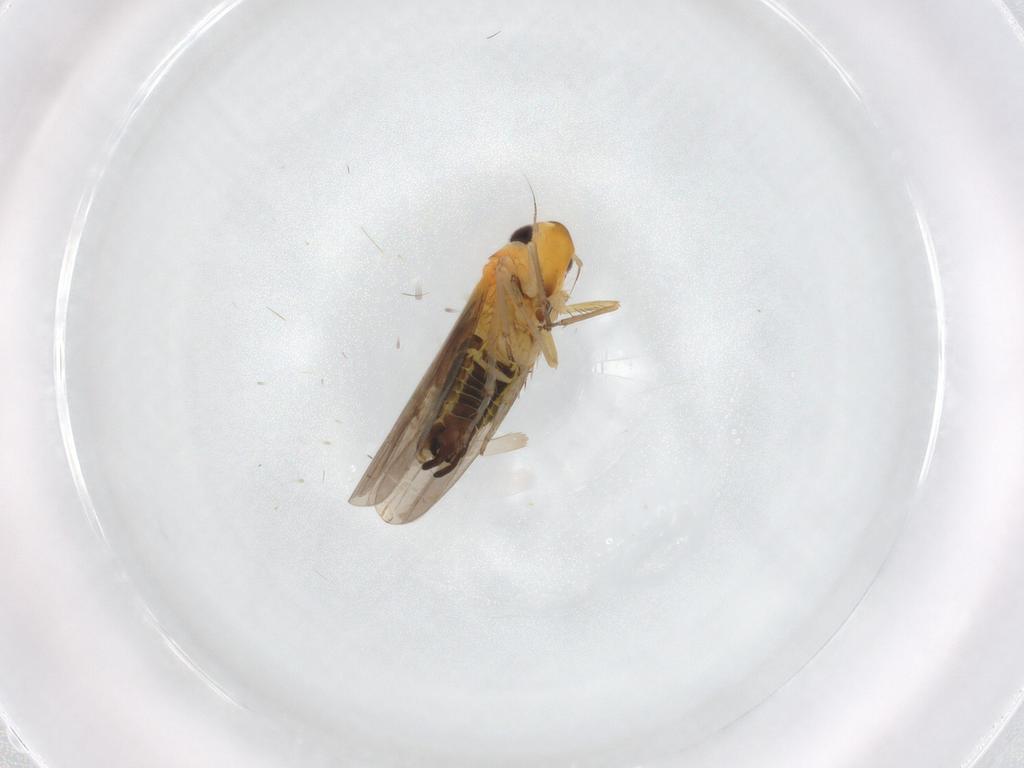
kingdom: Animalia
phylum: Arthropoda
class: Insecta
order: Hemiptera
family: Cicadellidae
